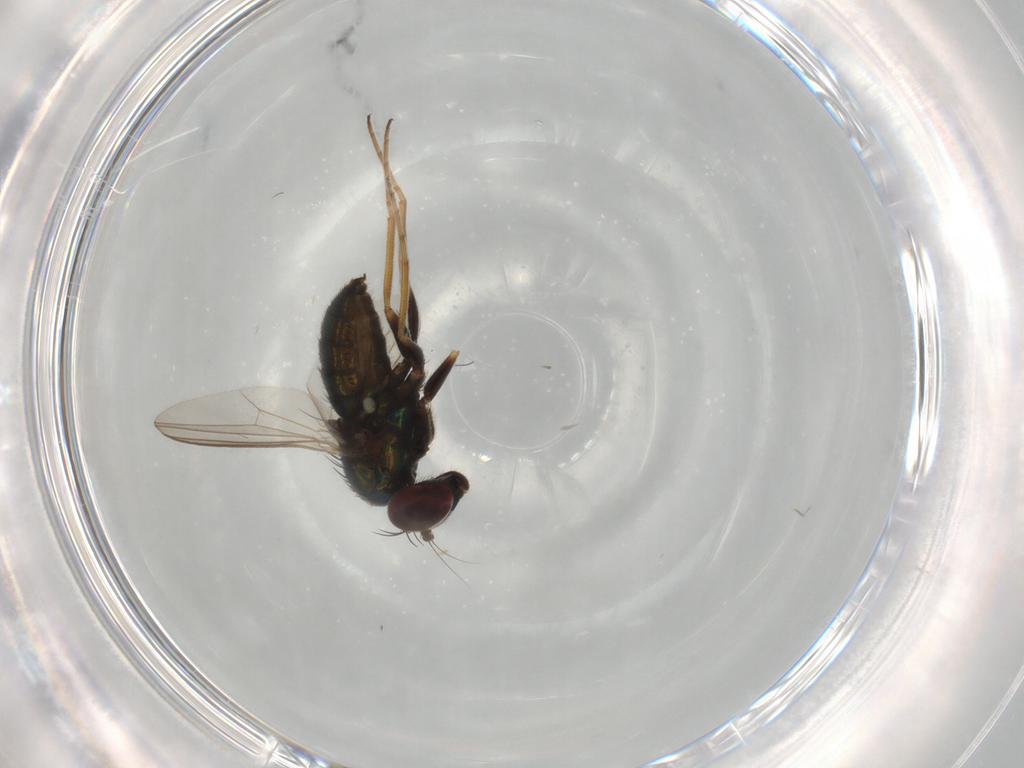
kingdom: Animalia
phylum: Arthropoda
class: Insecta
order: Diptera
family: Dolichopodidae
